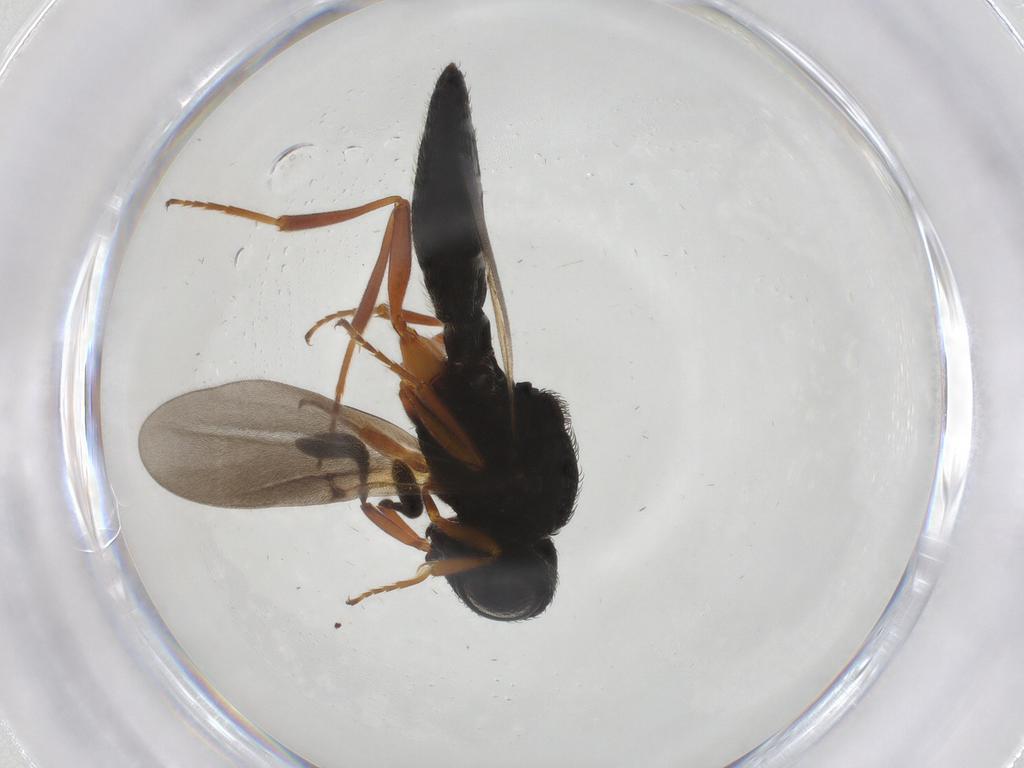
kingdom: Animalia
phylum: Arthropoda
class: Insecta
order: Hymenoptera
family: Scelionidae
